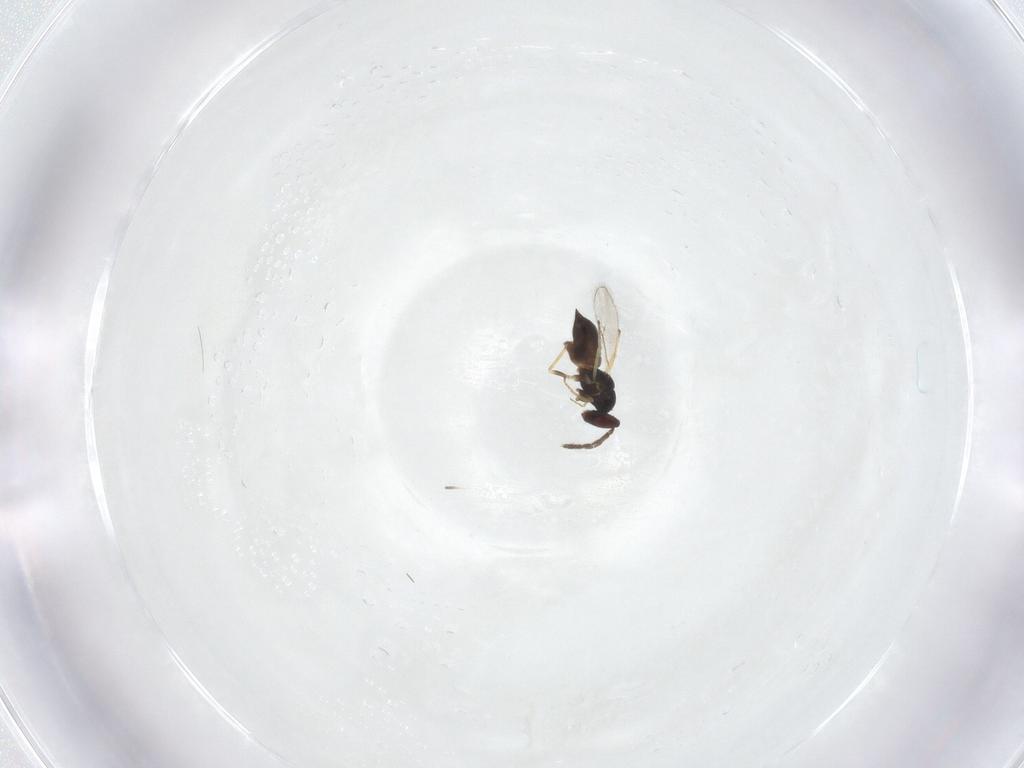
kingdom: Animalia
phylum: Arthropoda
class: Insecta
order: Hymenoptera
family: Eulophidae
